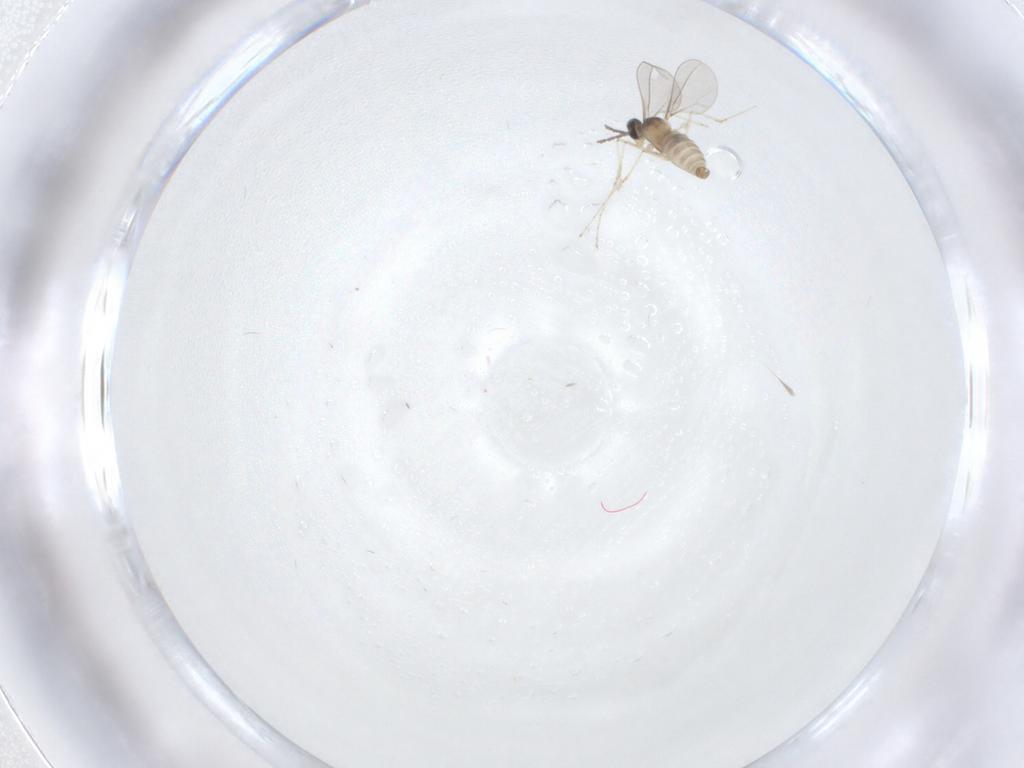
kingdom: Animalia
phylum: Arthropoda
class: Insecta
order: Diptera
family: Cecidomyiidae
